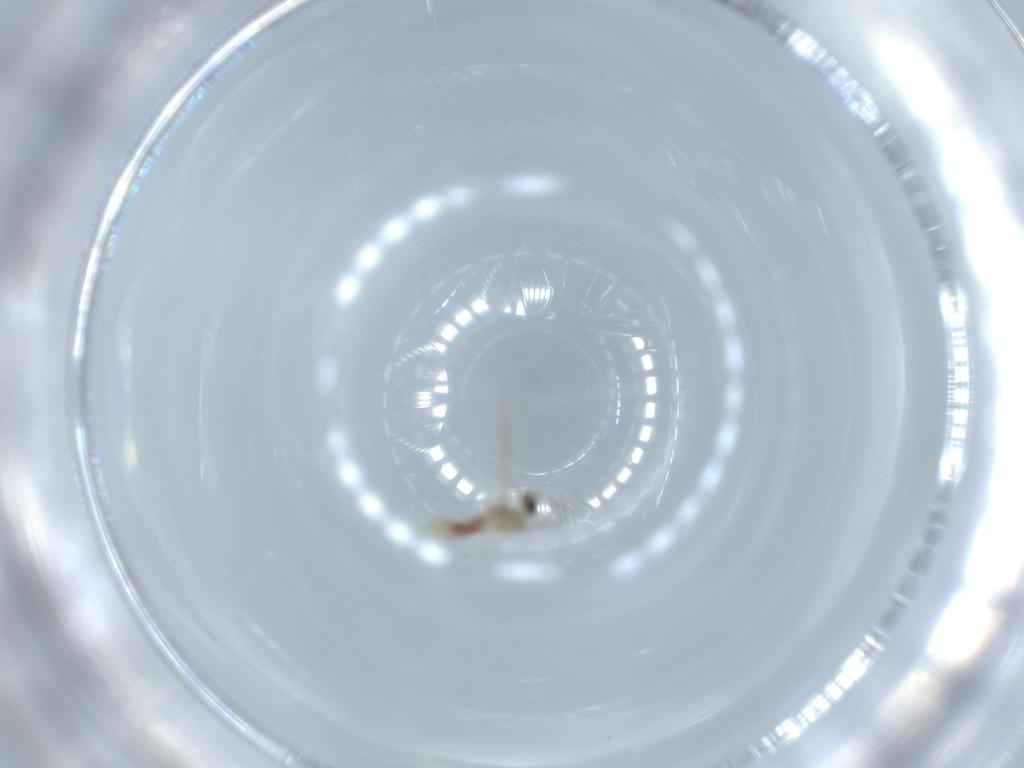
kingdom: Animalia
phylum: Arthropoda
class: Insecta
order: Diptera
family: Cecidomyiidae
